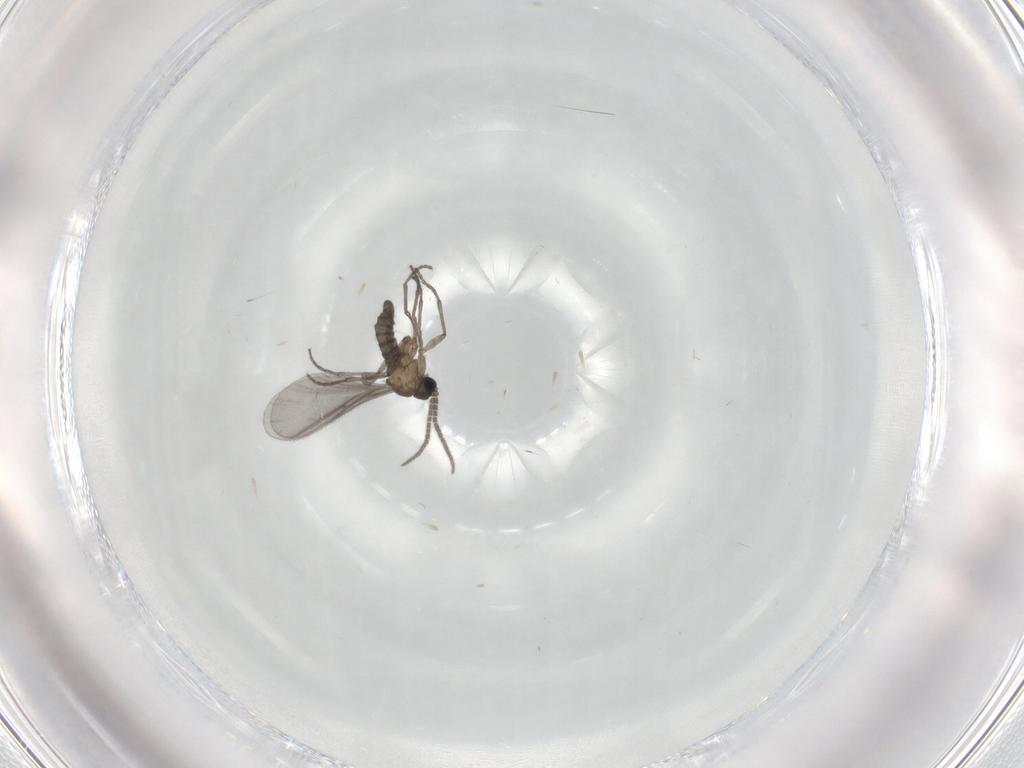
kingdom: Animalia
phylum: Arthropoda
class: Insecta
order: Diptera
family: Sciaridae
